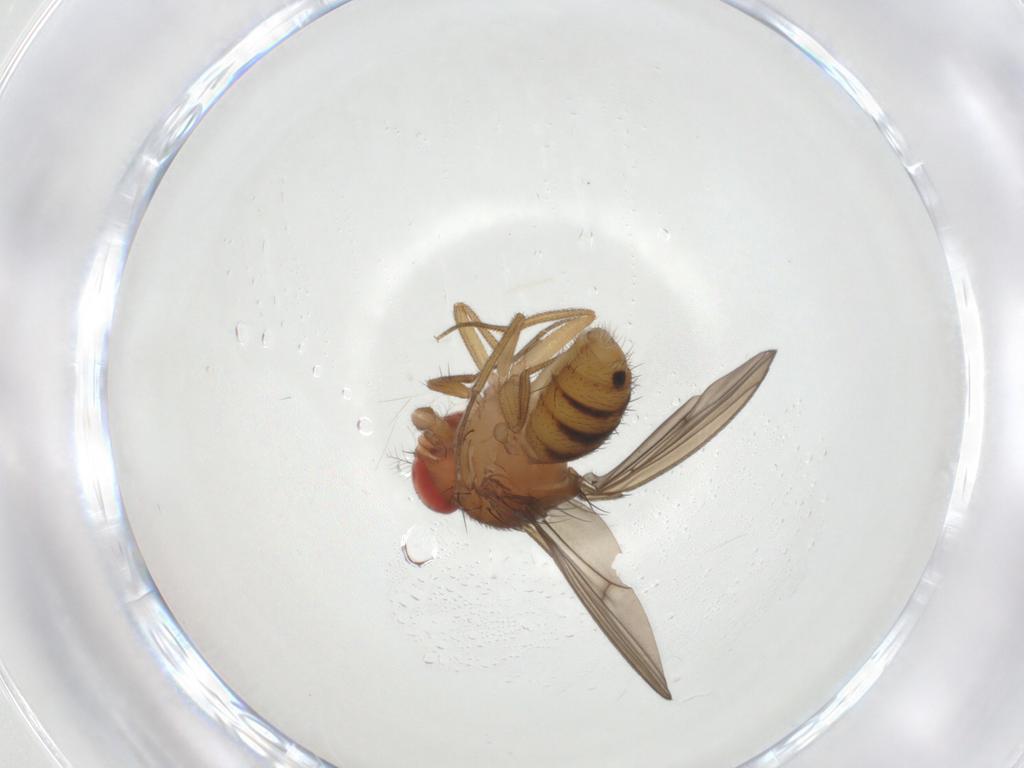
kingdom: Animalia
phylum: Arthropoda
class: Insecta
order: Diptera
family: Drosophilidae
